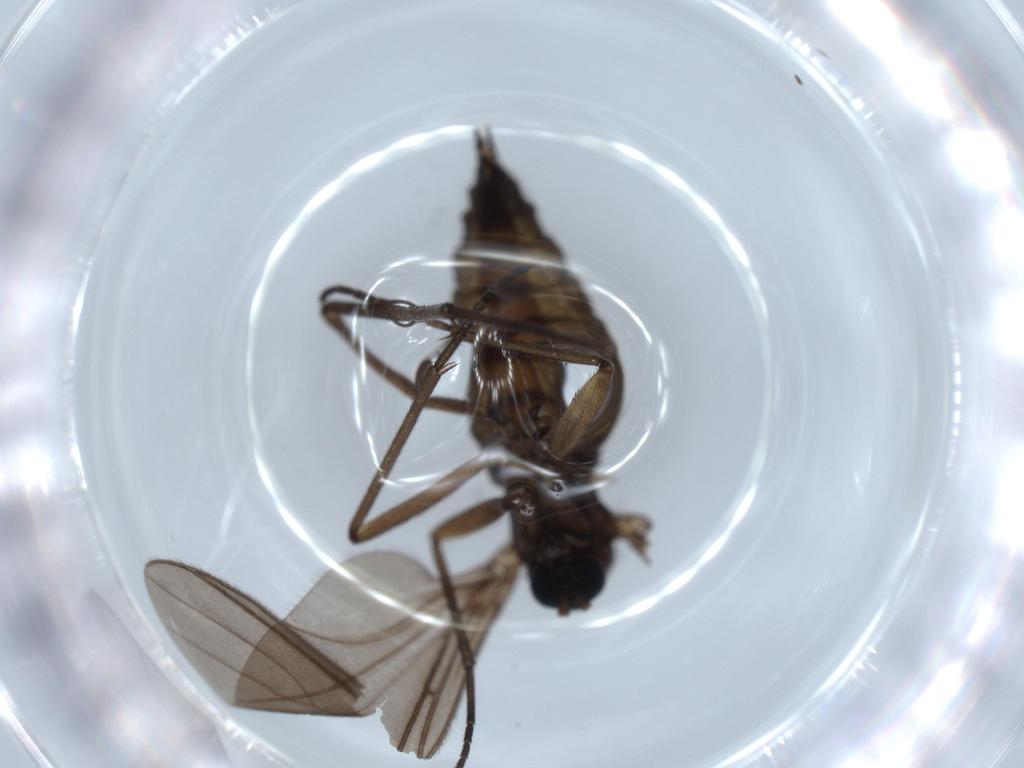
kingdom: Animalia
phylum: Arthropoda
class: Insecta
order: Diptera
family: Sciaridae
